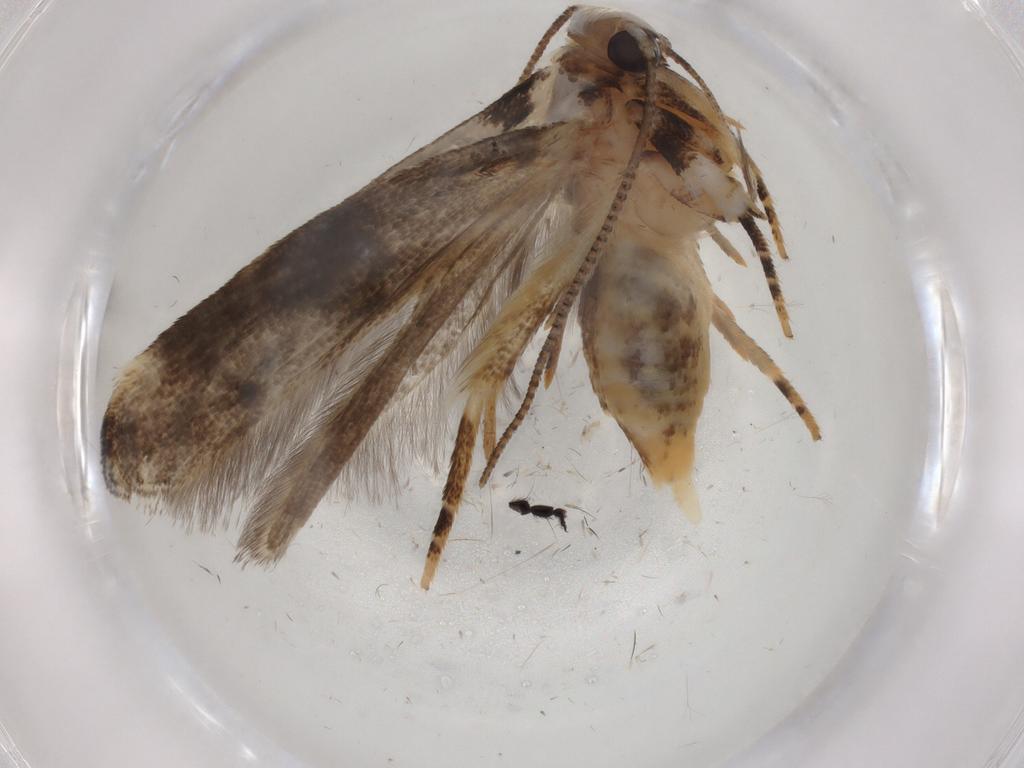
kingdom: Animalia
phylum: Arthropoda
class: Insecta
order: Lepidoptera
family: Gelechiidae
